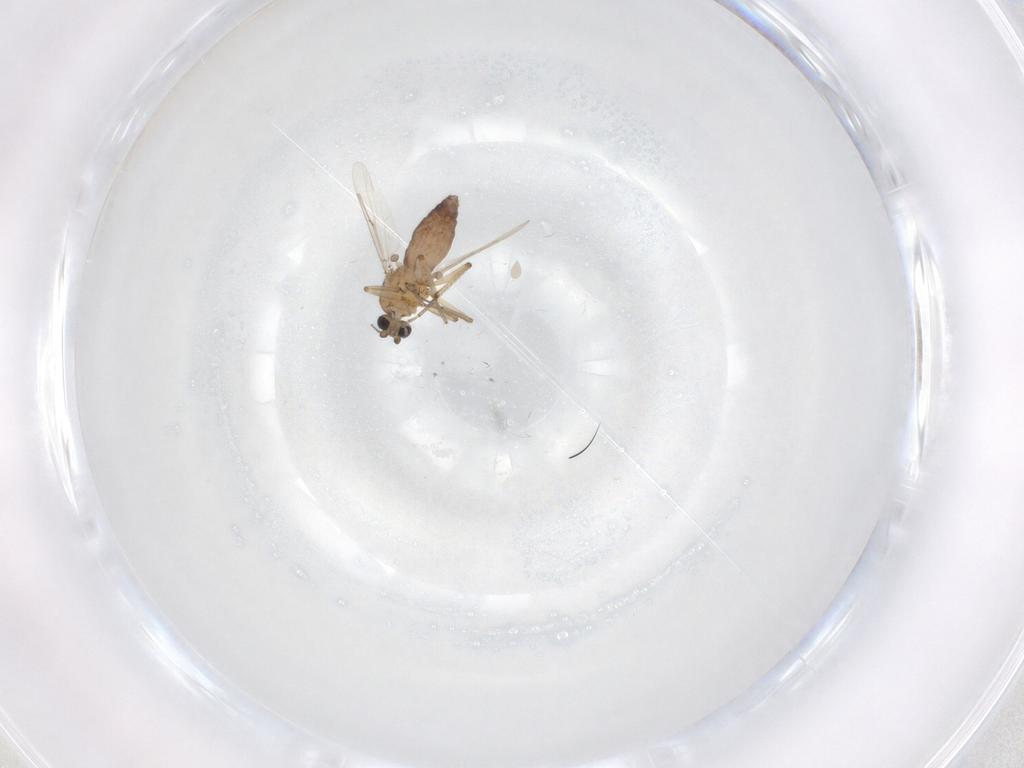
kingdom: Animalia
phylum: Arthropoda
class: Insecta
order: Diptera
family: Ceratopogonidae
